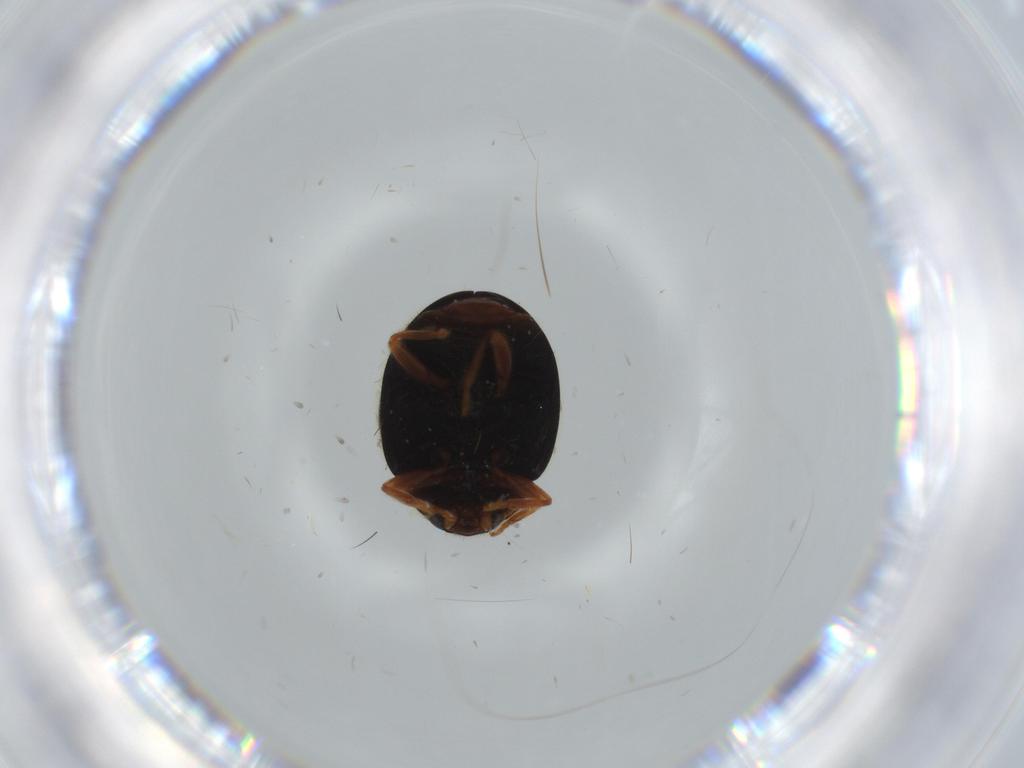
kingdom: Animalia
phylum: Arthropoda
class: Insecta
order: Coleoptera
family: Coccinellidae
